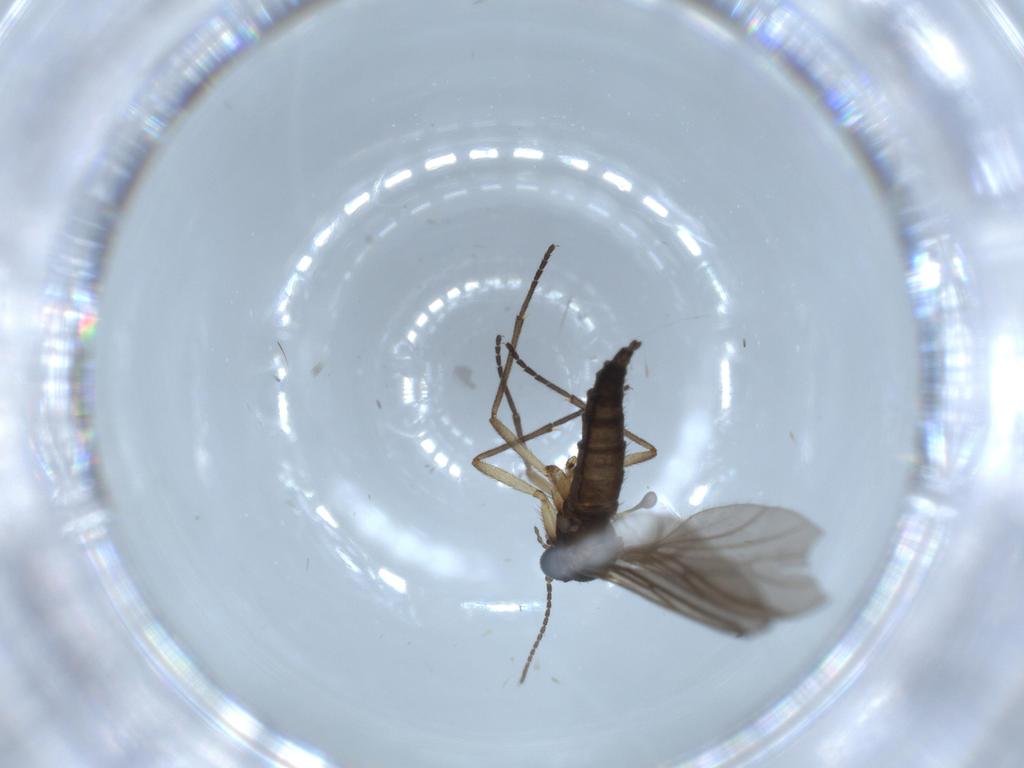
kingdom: Animalia
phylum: Arthropoda
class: Insecta
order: Diptera
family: Sciaridae
